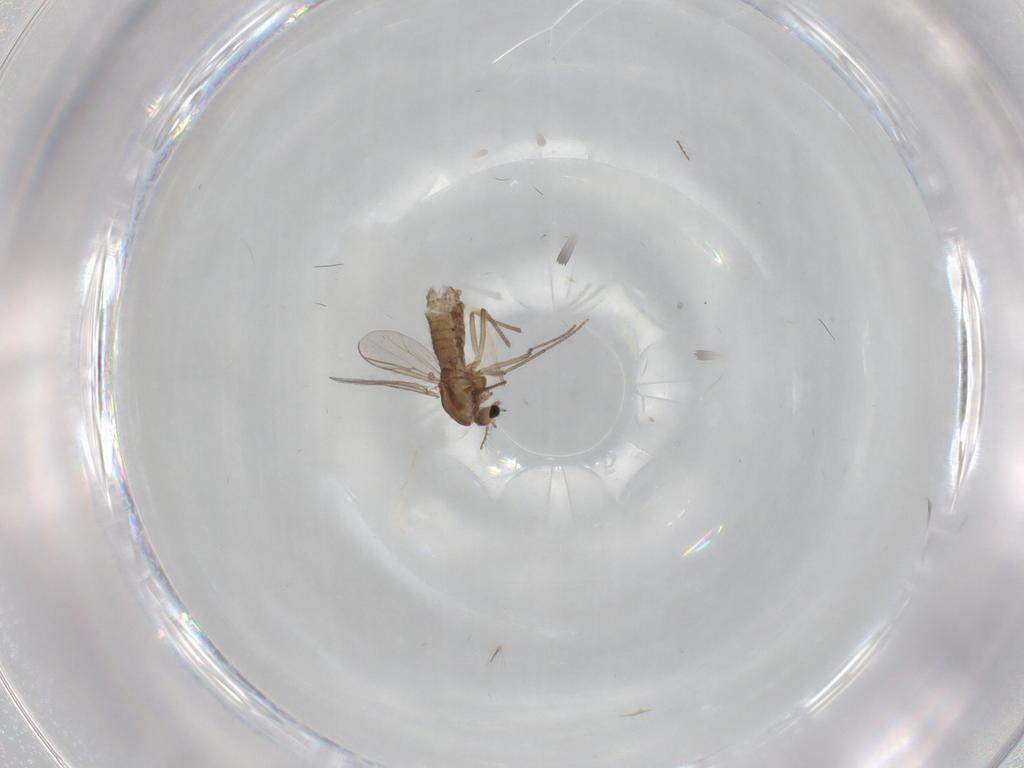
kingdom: Animalia
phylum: Arthropoda
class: Insecta
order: Diptera
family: Chironomidae
